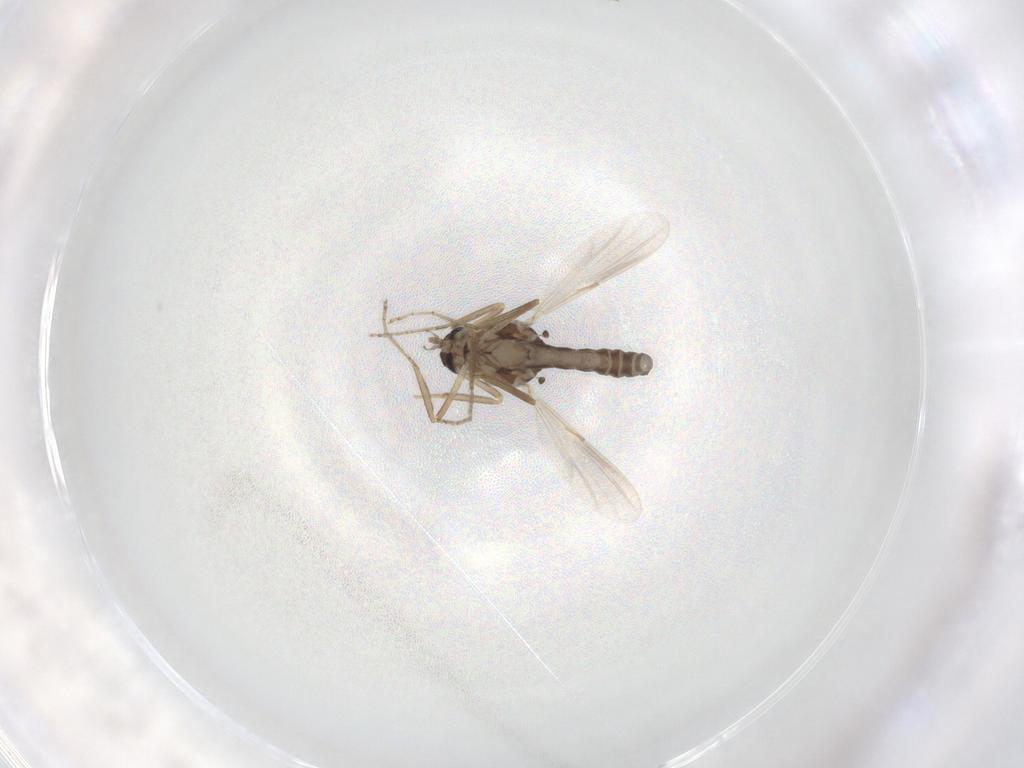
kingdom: Animalia
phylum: Arthropoda
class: Insecta
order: Diptera
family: Ceratopogonidae
